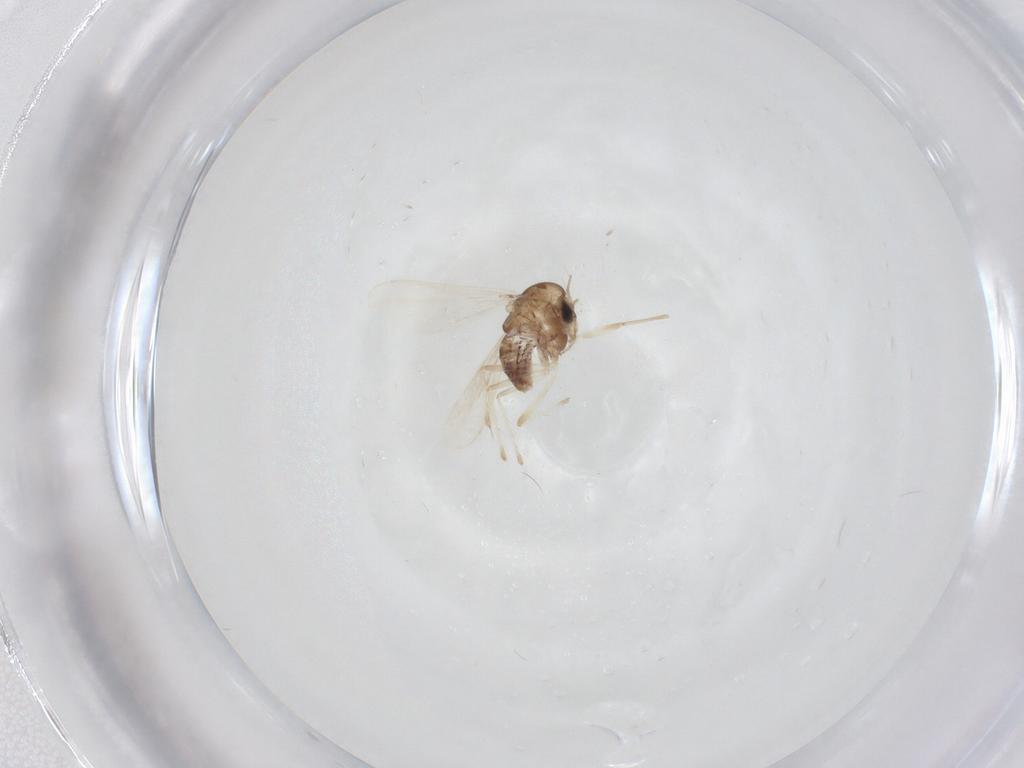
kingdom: Animalia
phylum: Arthropoda
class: Insecta
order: Diptera
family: Chironomidae
